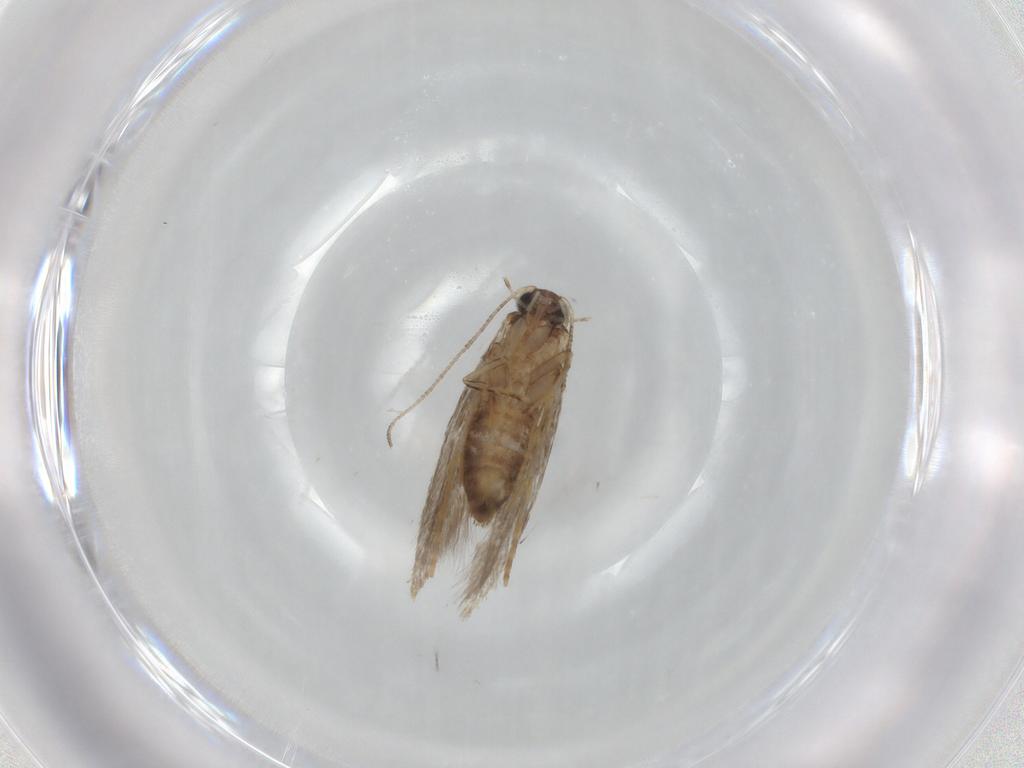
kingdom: Animalia
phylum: Arthropoda
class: Insecta
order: Lepidoptera
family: Tineidae
